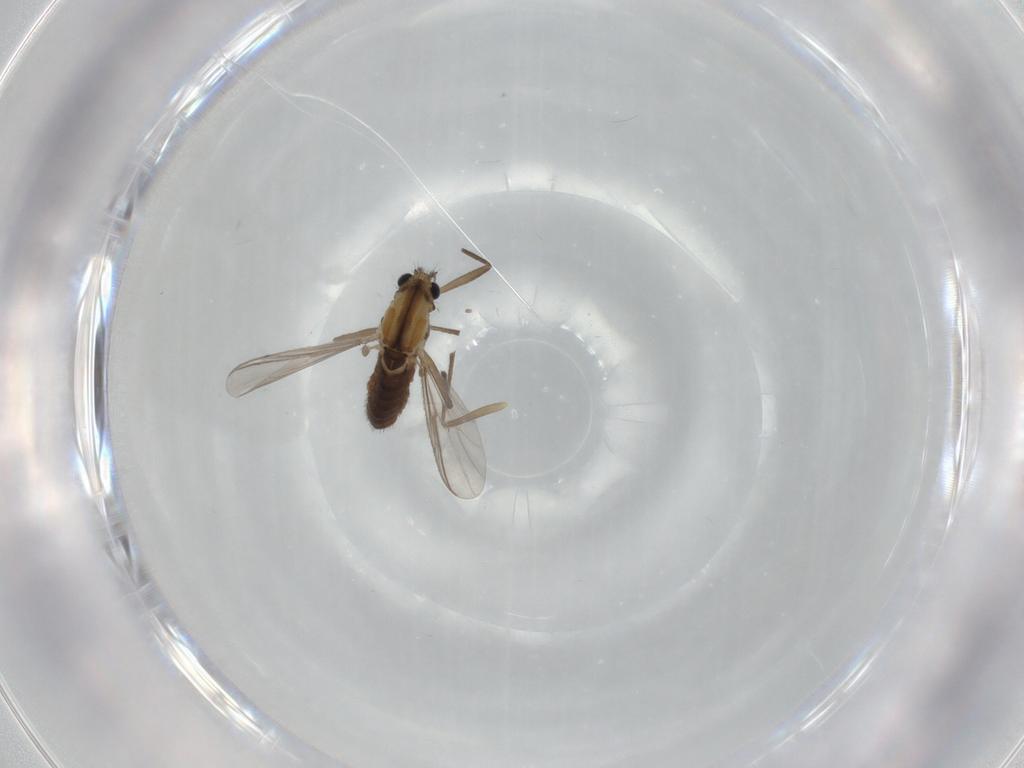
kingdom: Animalia
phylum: Arthropoda
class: Insecta
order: Diptera
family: Chironomidae
